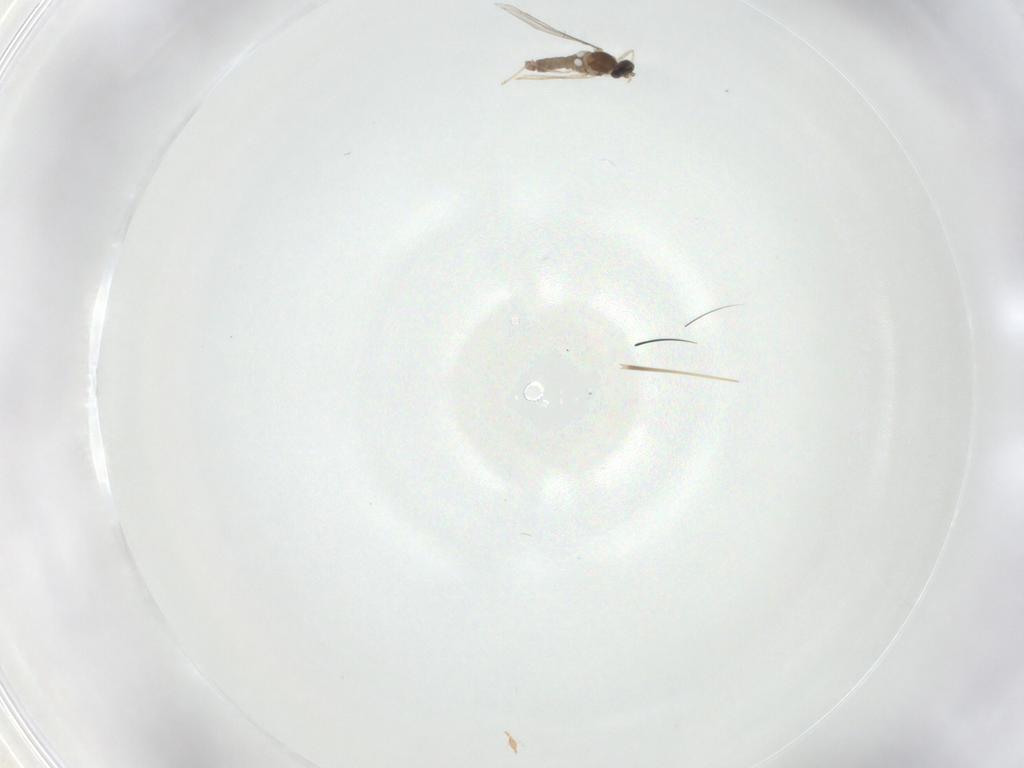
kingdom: Animalia
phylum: Arthropoda
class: Insecta
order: Diptera
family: Cecidomyiidae
